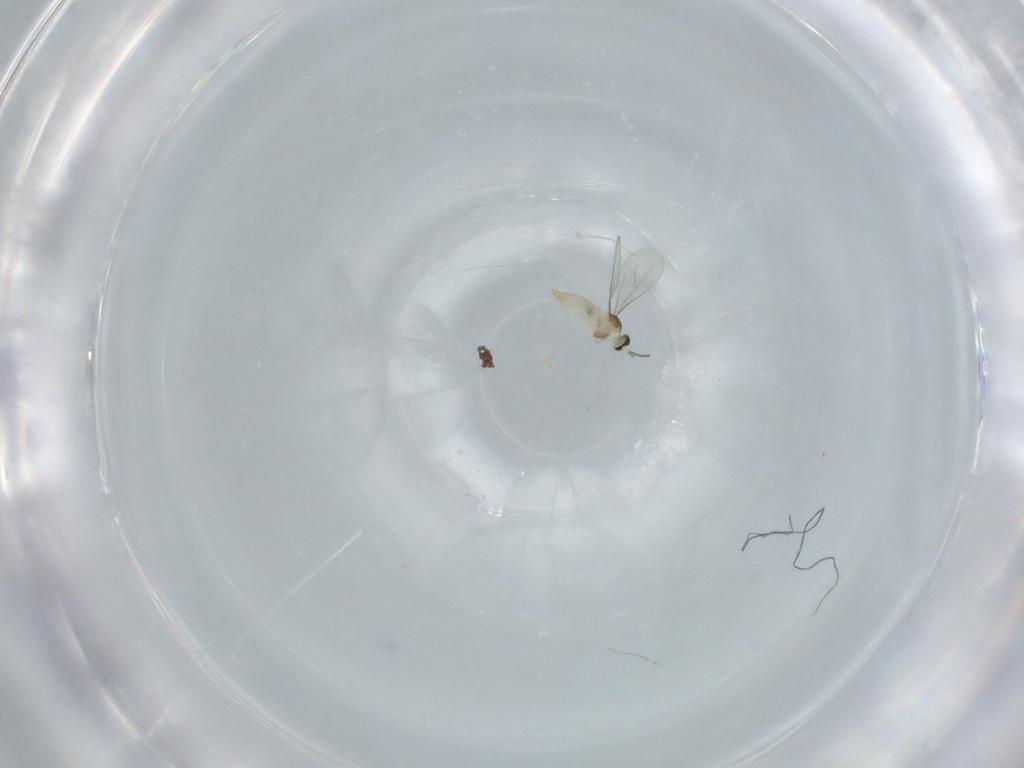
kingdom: Animalia
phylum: Arthropoda
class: Insecta
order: Diptera
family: Cecidomyiidae
